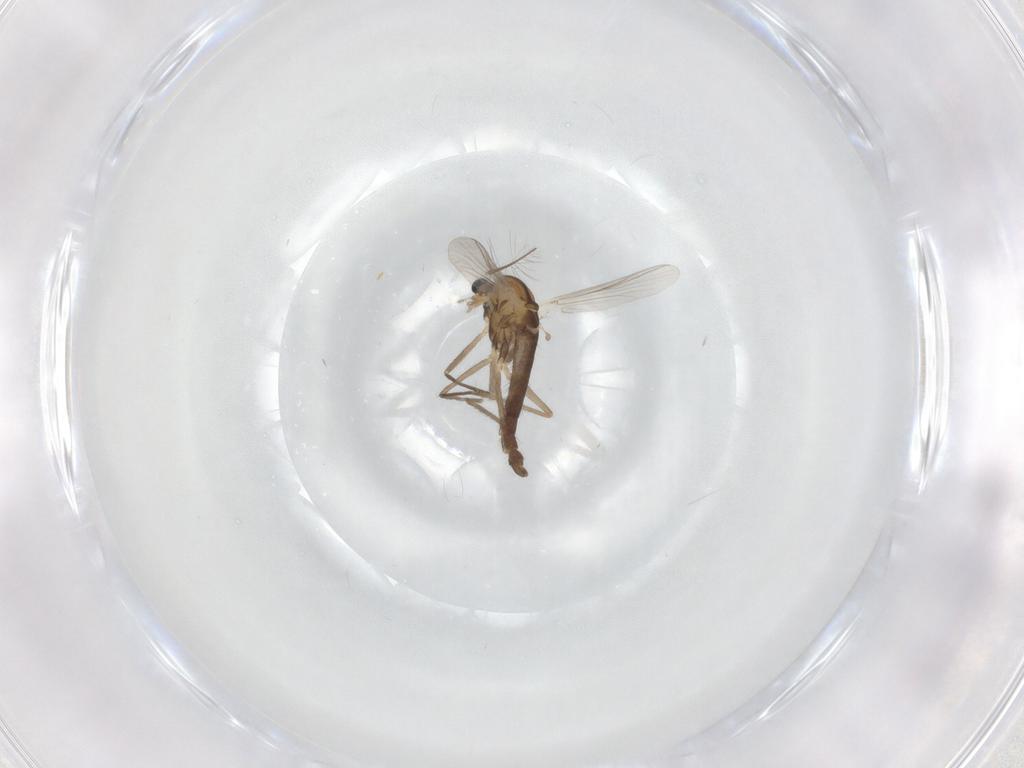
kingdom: Animalia
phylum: Arthropoda
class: Insecta
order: Diptera
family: Chironomidae
